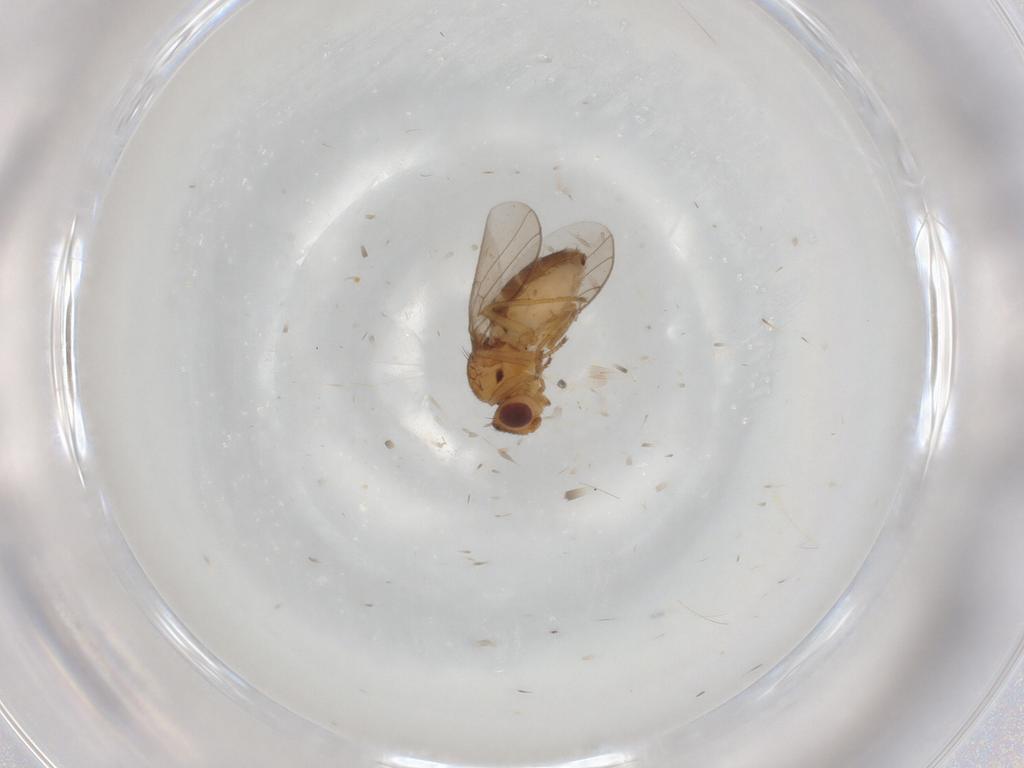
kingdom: Animalia
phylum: Arthropoda
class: Insecta
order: Diptera
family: Chloropidae
